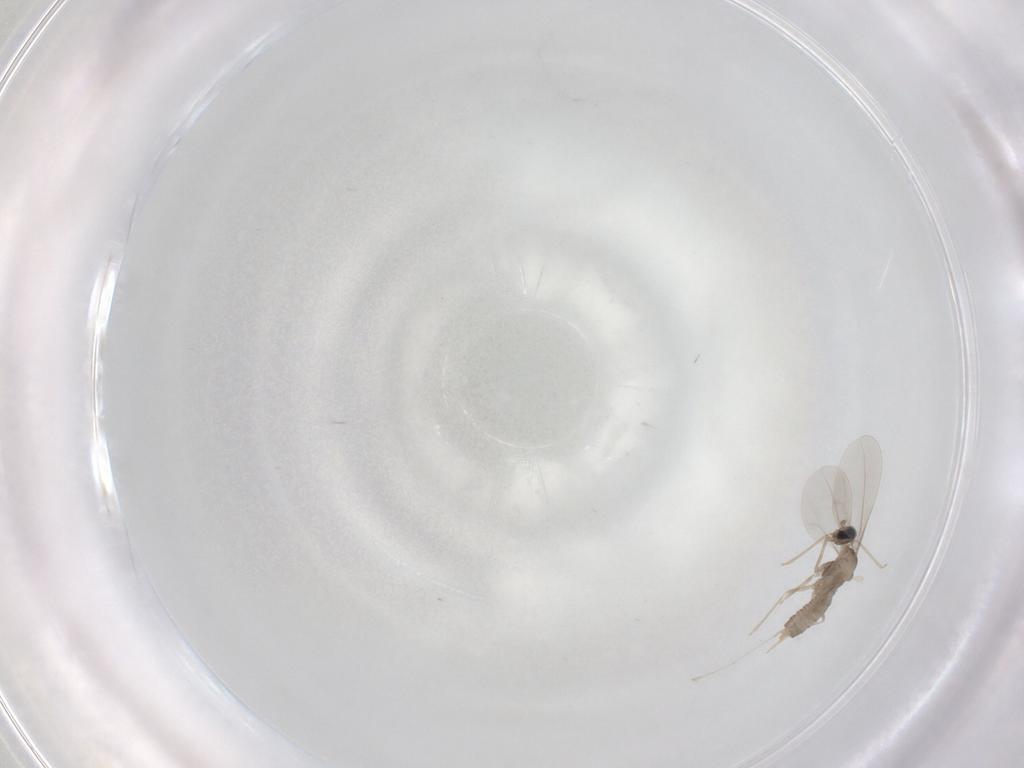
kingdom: Animalia
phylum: Arthropoda
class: Insecta
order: Diptera
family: Cecidomyiidae
